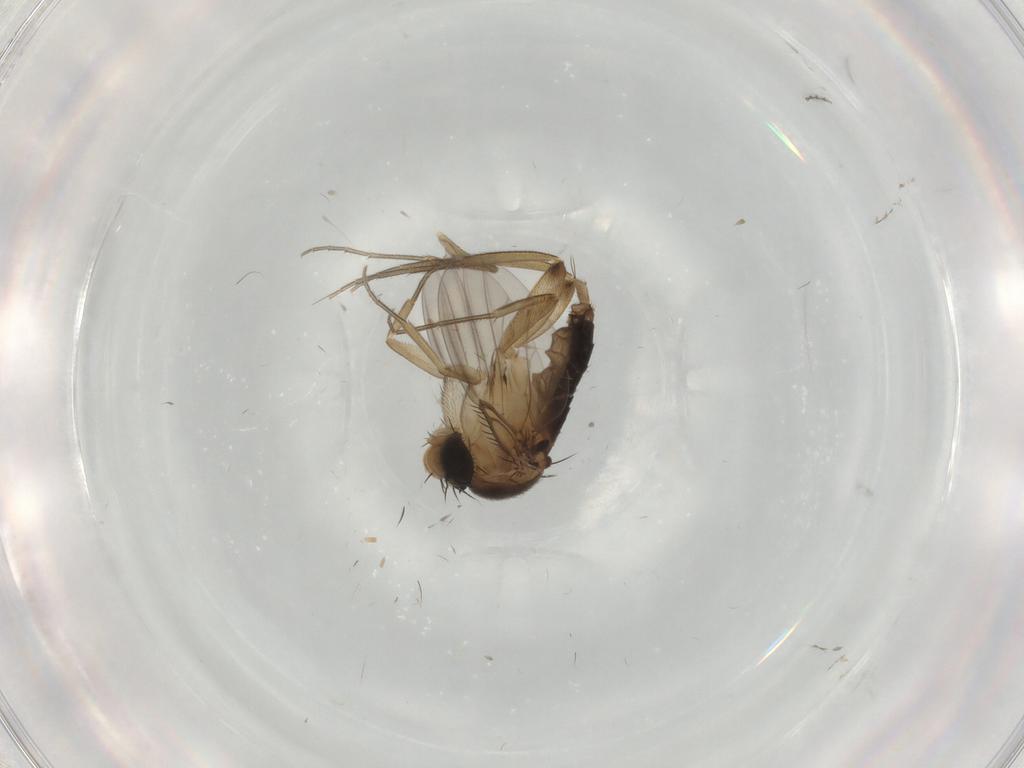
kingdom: Animalia
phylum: Arthropoda
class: Insecta
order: Diptera
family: Phoridae
